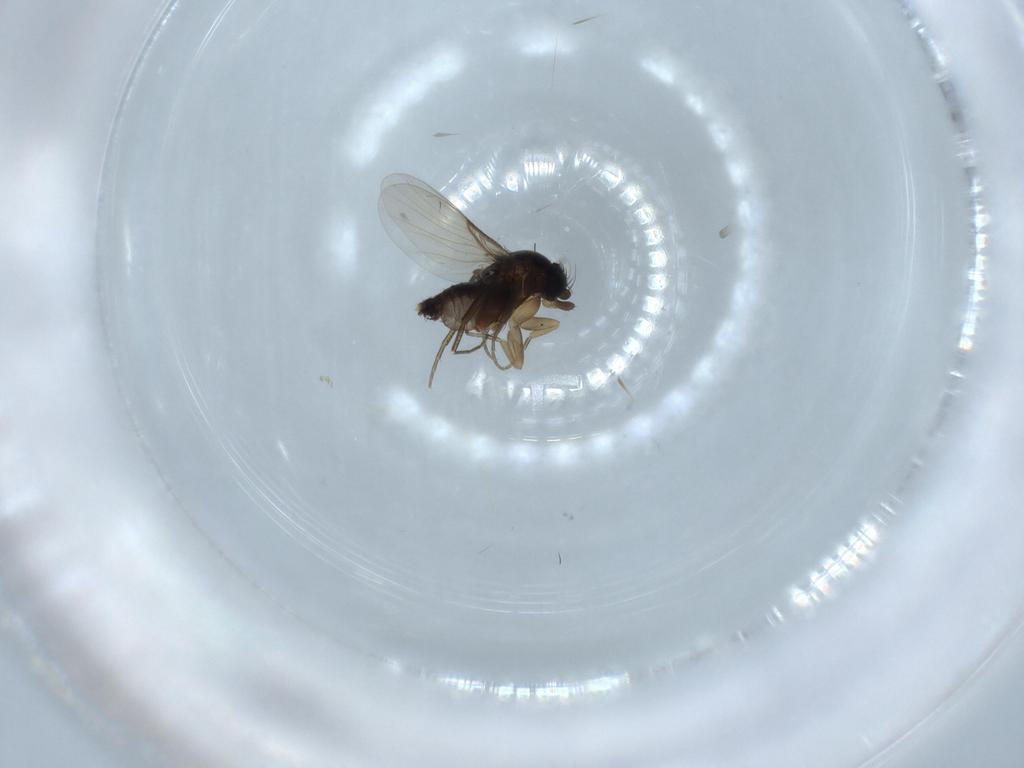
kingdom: Animalia
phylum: Arthropoda
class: Insecta
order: Diptera
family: Phoridae
